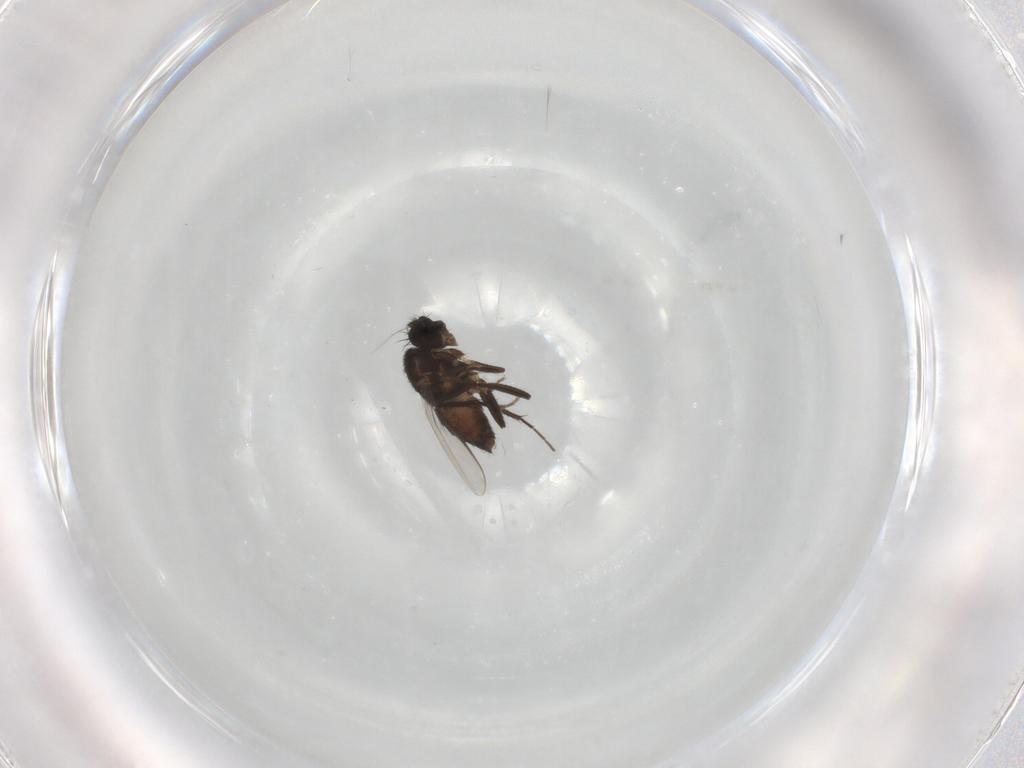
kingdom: Animalia
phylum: Arthropoda
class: Insecta
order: Diptera
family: Sphaeroceridae
